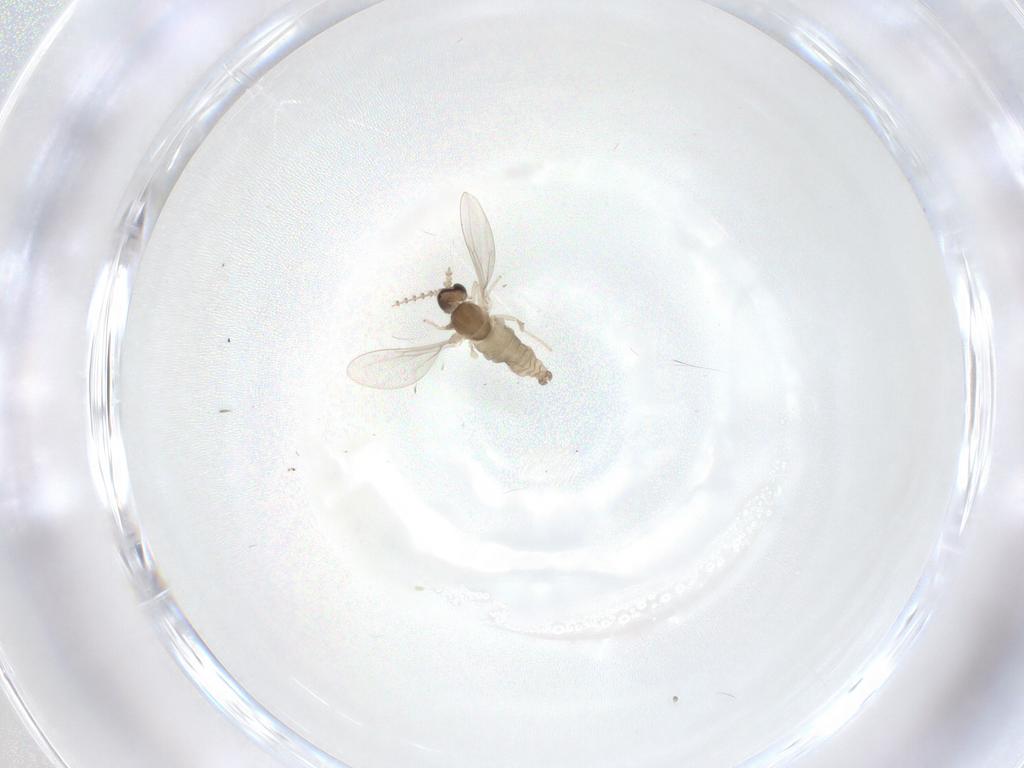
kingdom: Animalia
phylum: Arthropoda
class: Insecta
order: Diptera
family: Cecidomyiidae
